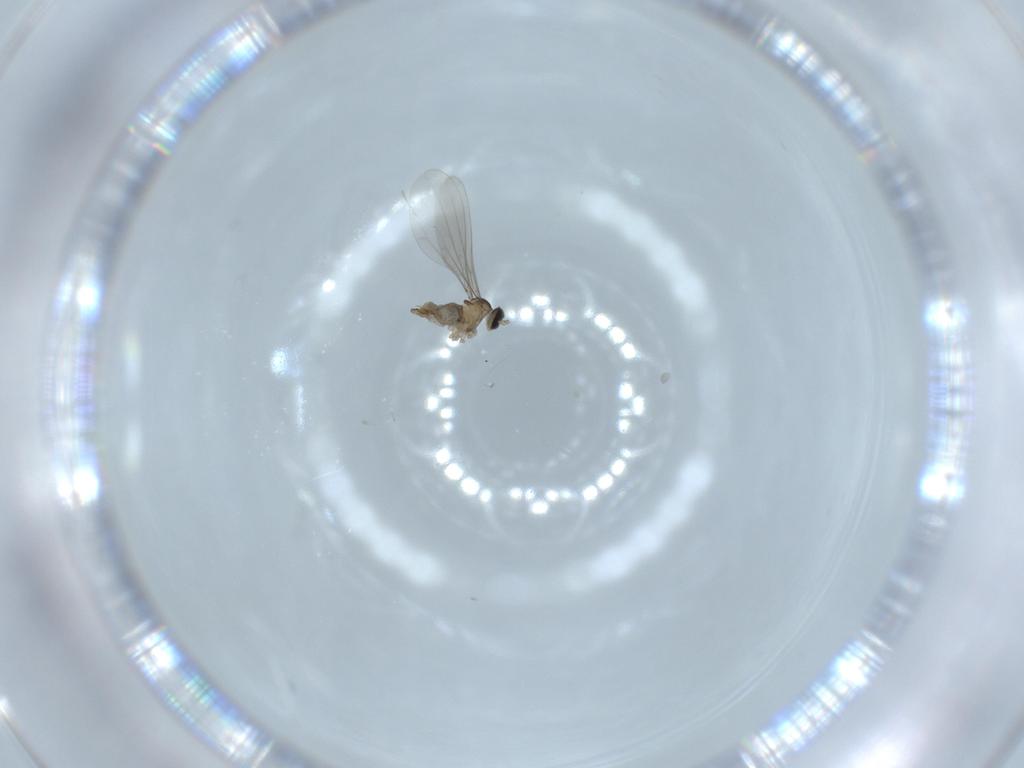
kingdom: Animalia
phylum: Arthropoda
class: Insecta
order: Diptera
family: Cecidomyiidae
